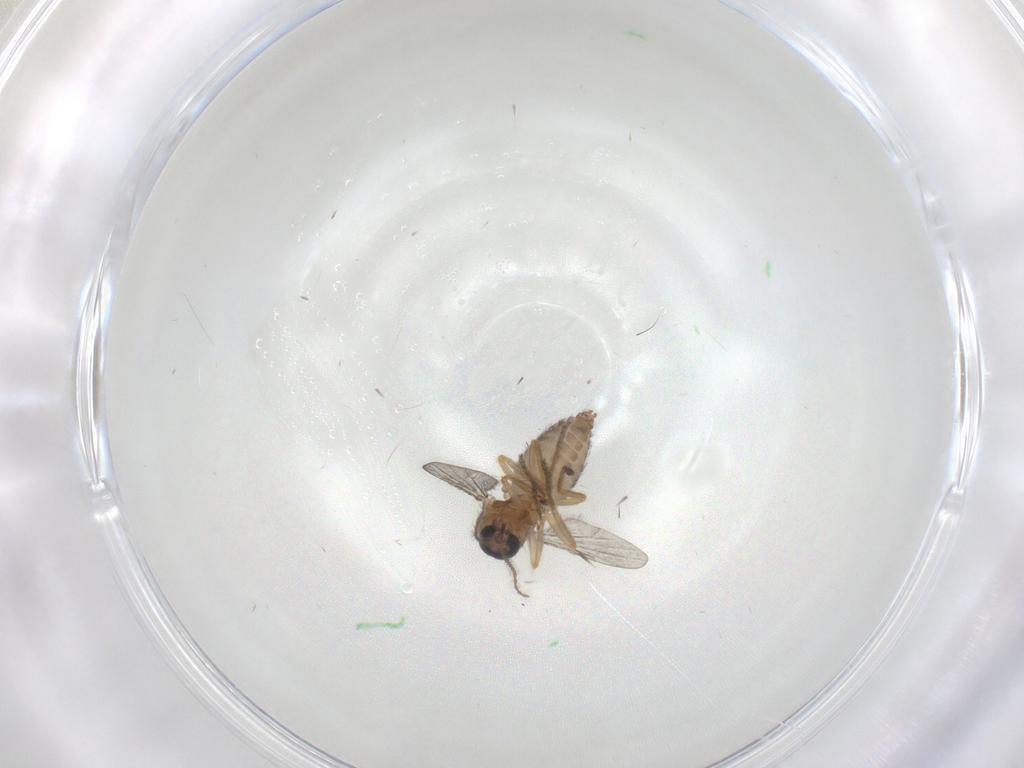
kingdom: Animalia
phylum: Arthropoda
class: Insecta
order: Diptera
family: Ceratopogonidae
